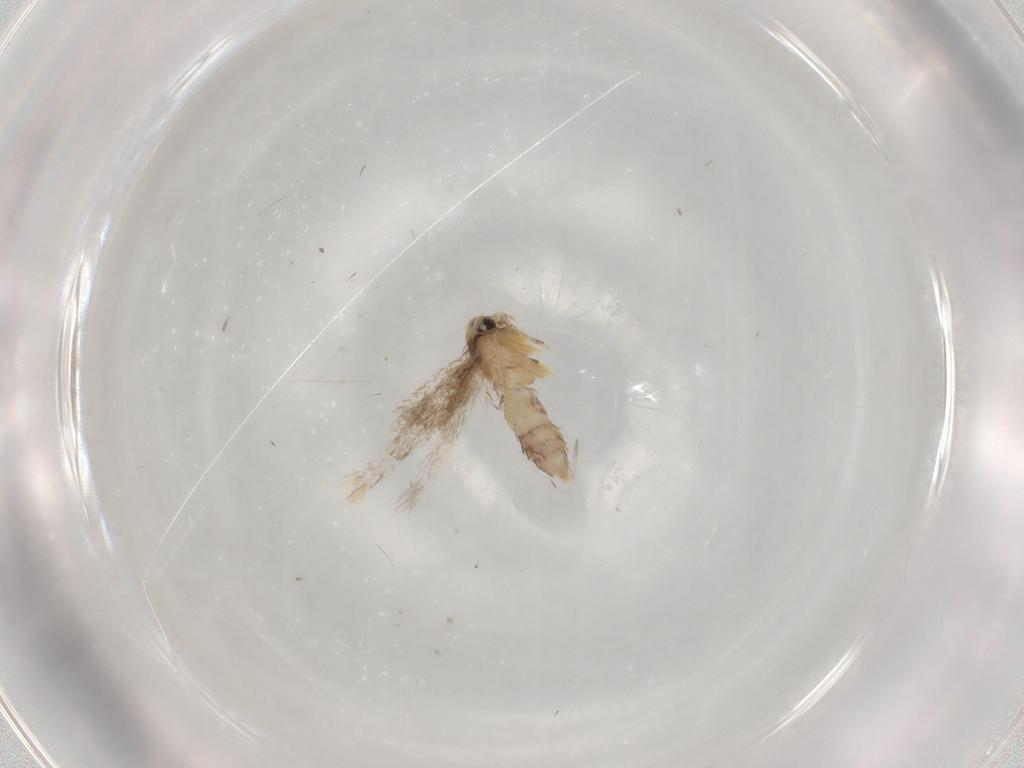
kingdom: Animalia
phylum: Arthropoda
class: Insecta
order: Lepidoptera
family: Nepticulidae
